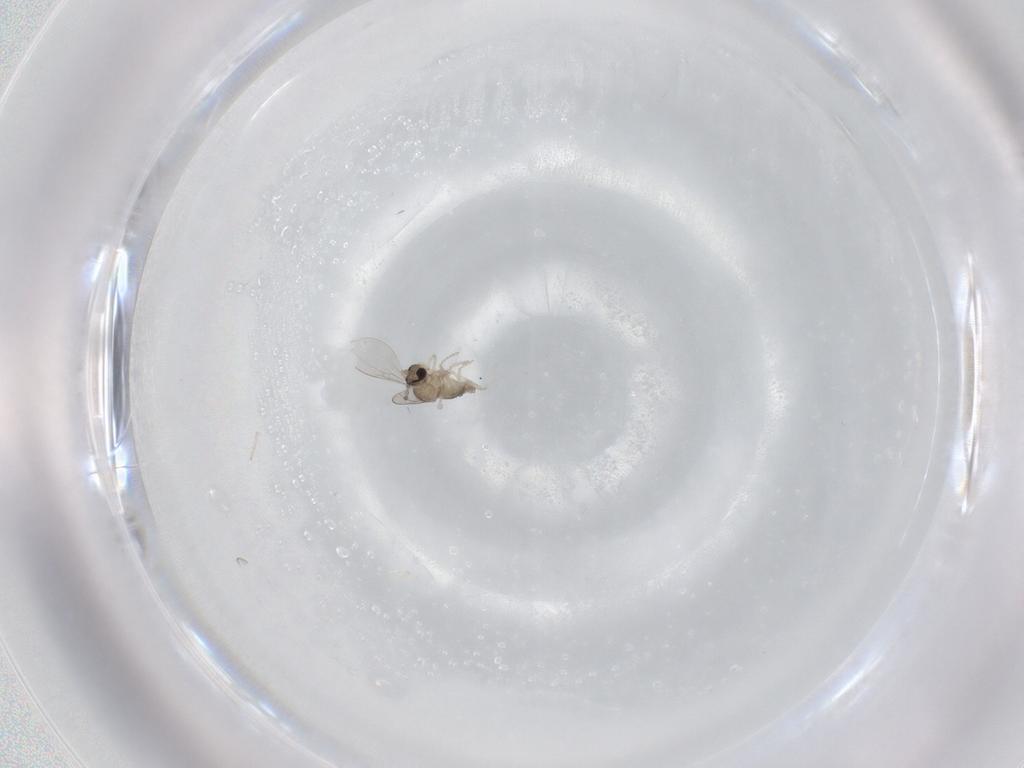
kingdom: Animalia
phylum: Arthropoda
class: Insecta
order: Diptera
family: Cecidomyiidae
